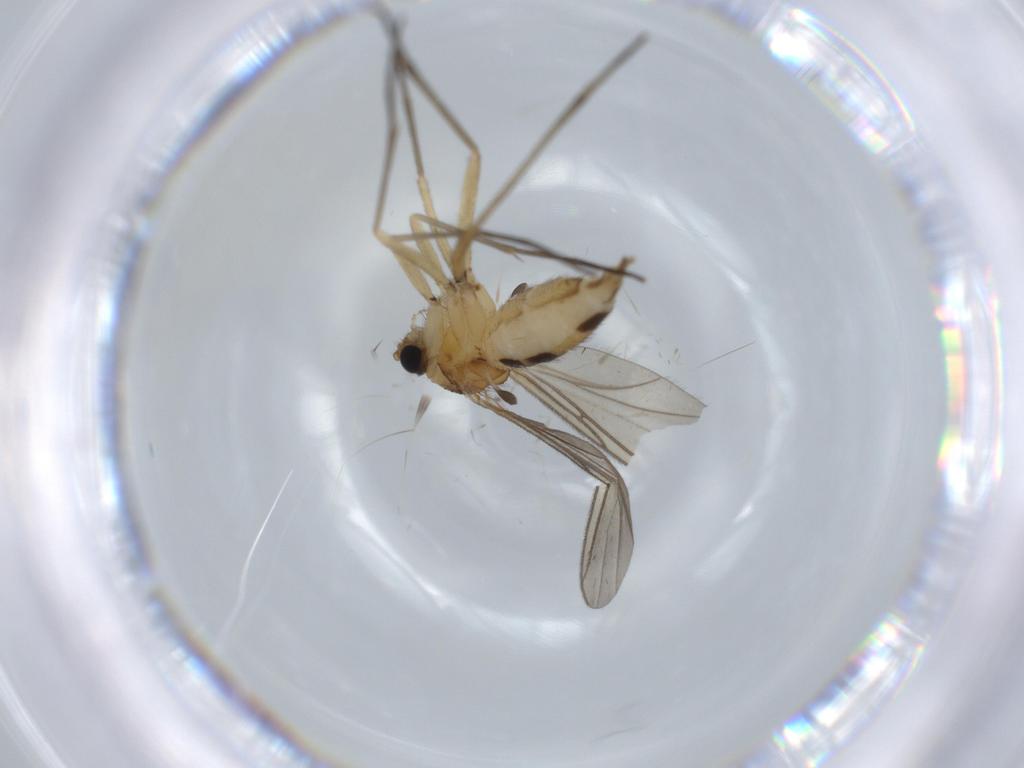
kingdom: Animalia
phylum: Arthropoda
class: Insecta
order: Diptera
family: Sciaridae
